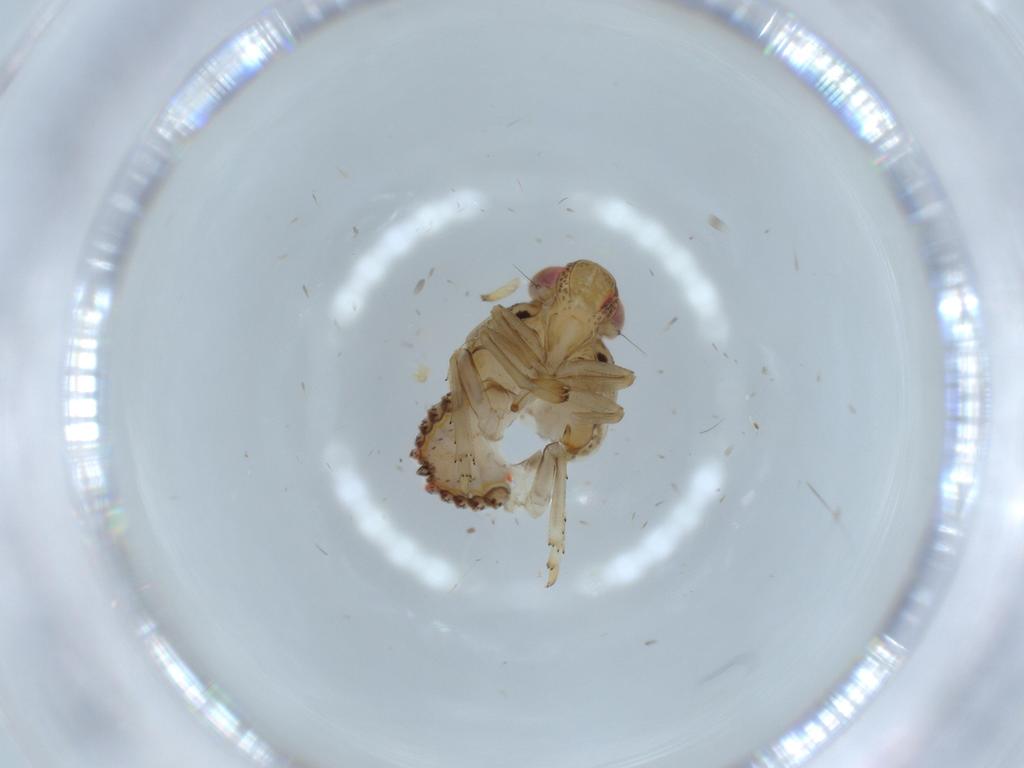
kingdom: Animalia
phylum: Arthropoda
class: Insecta
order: Hemiptera
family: Issidae
